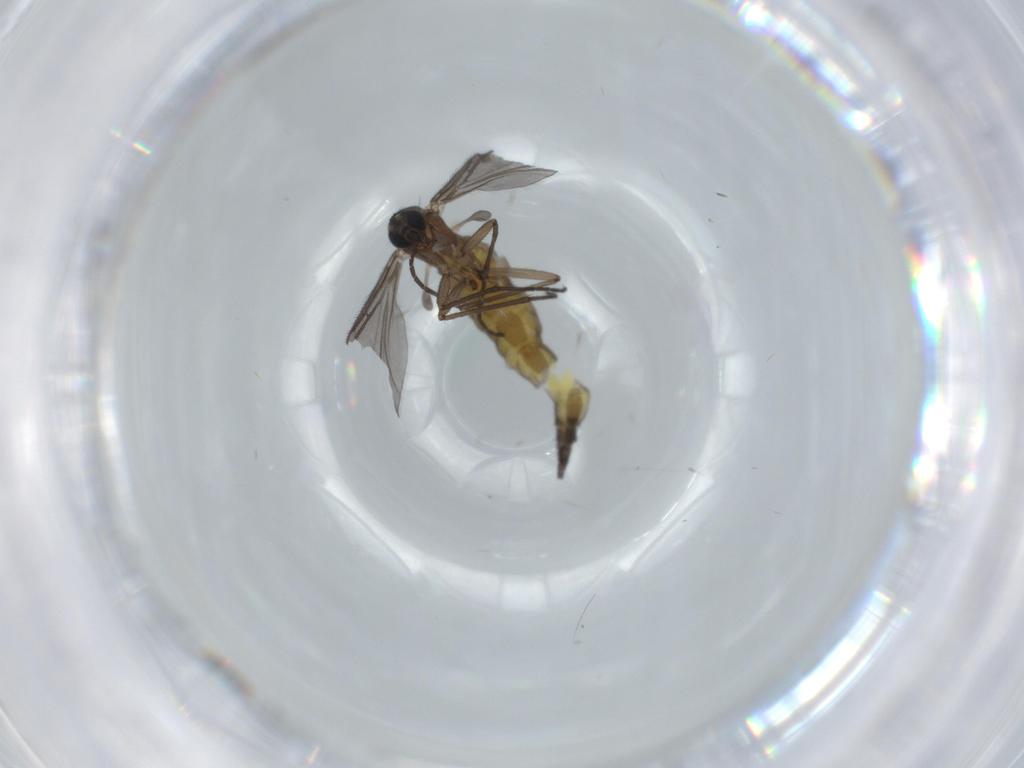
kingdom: Animalia
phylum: Arthropoda
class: Insecta
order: Diptera
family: Sciaridae
